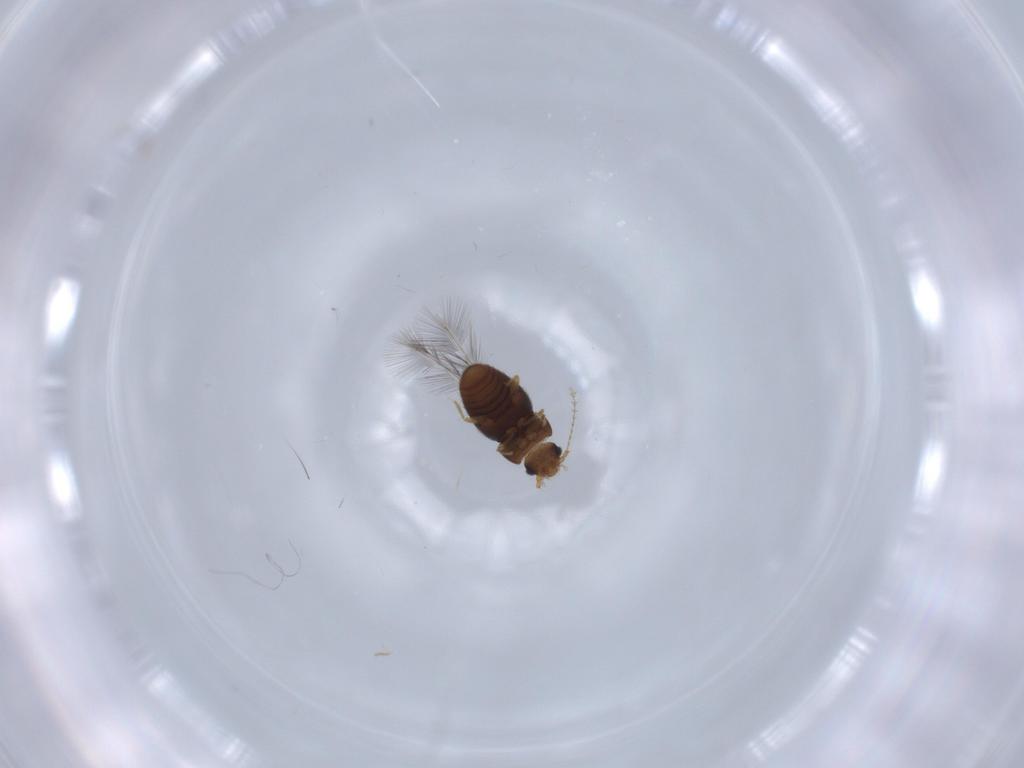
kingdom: Animalia
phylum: Arthropoda
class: Insecta
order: Coleoptera
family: Ptiliidae
